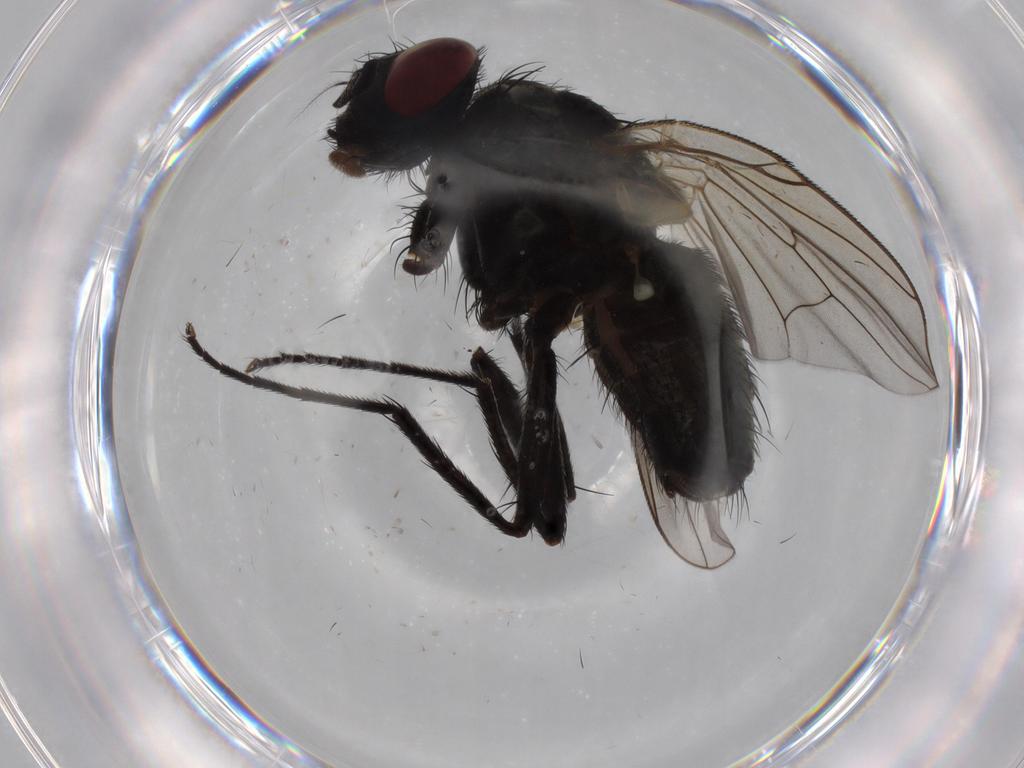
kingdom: Animalia
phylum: Arthropoda
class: Insecta
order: Diptera
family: Muscidae
